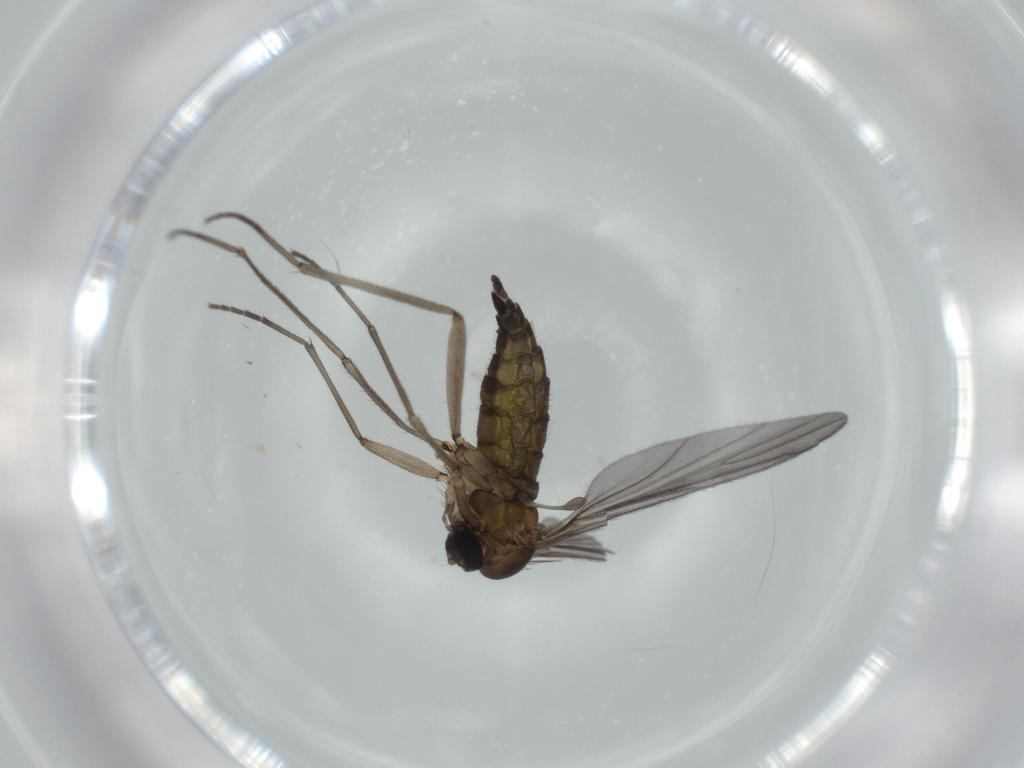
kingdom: Animalia
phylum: Arthropoda
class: Insecta
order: Diptera
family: Sciaridae
